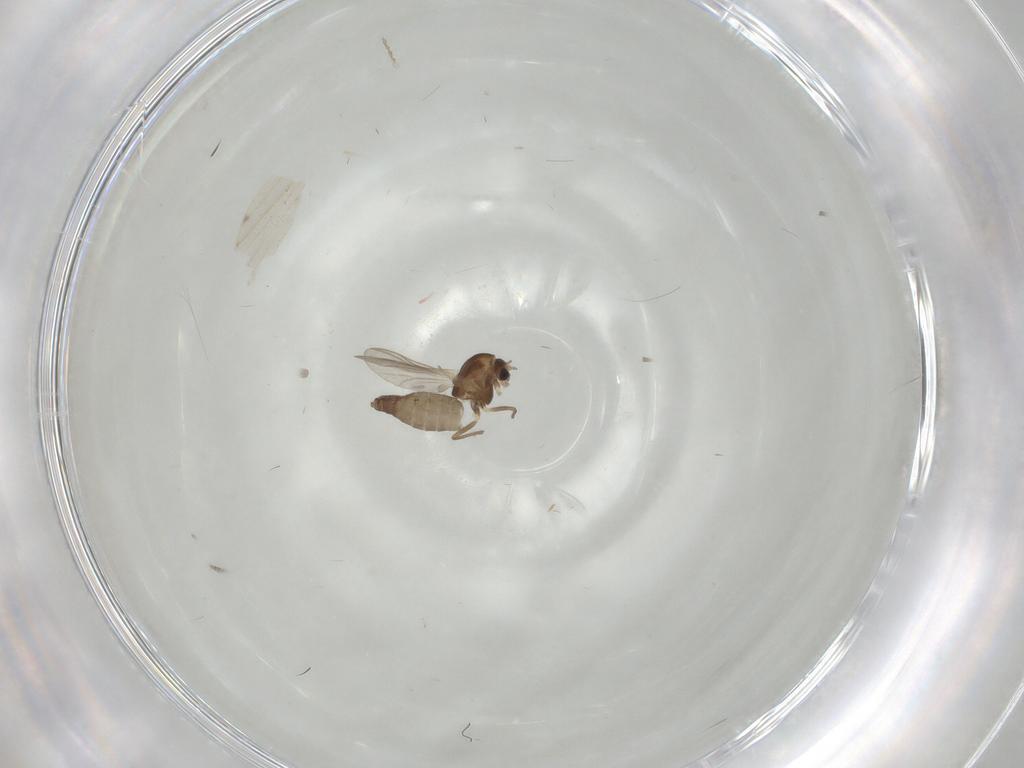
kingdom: Animalia
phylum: Arthropoda
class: Insecta
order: Diptera
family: Chironomidae
